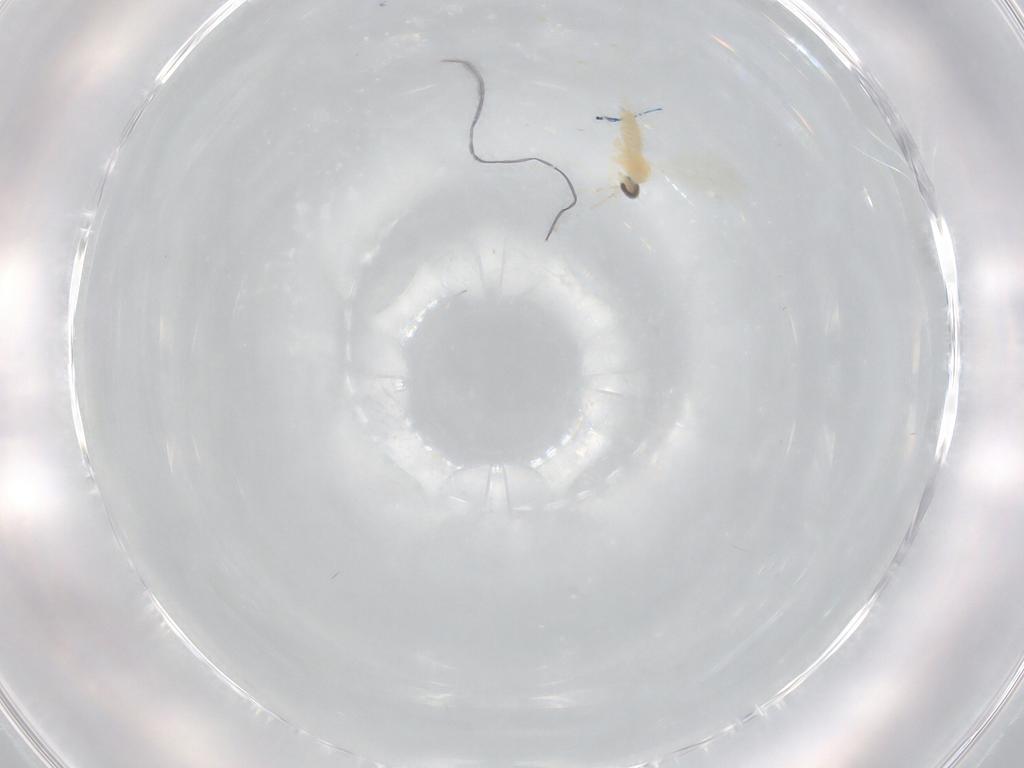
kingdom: Animalia
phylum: Arthropoda
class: Insecta
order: Diptera
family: Cecidomyiidae
